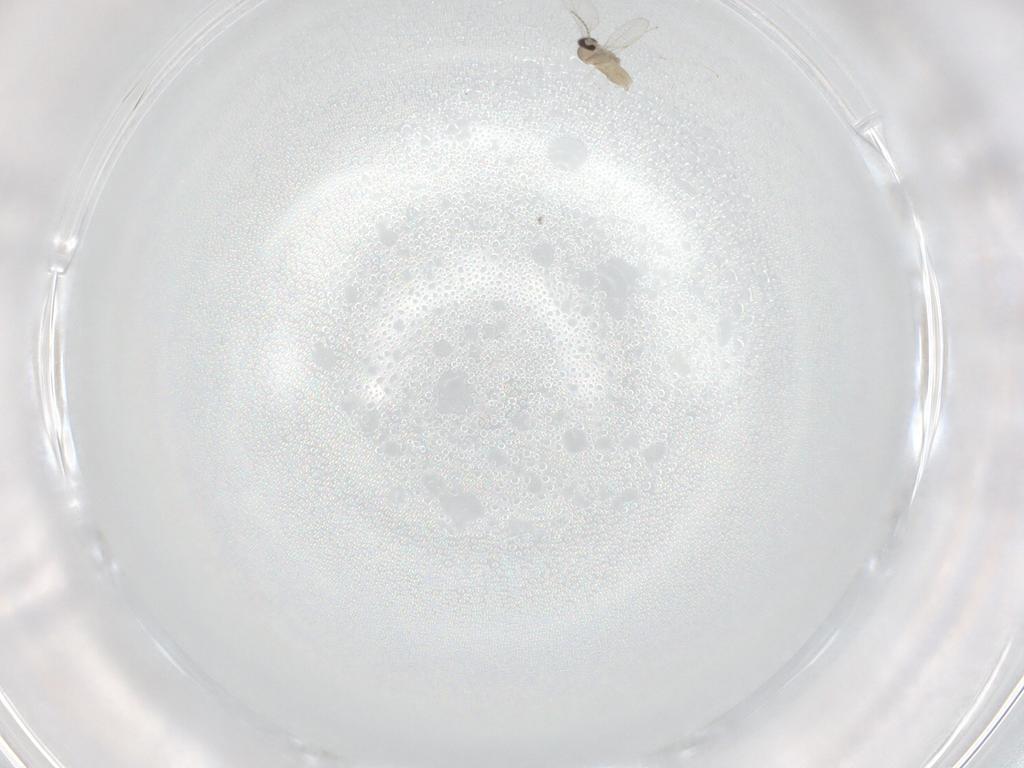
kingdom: Animalia
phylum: Arthropoda
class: Insecta
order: Diptera
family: Cecidomyiidae
